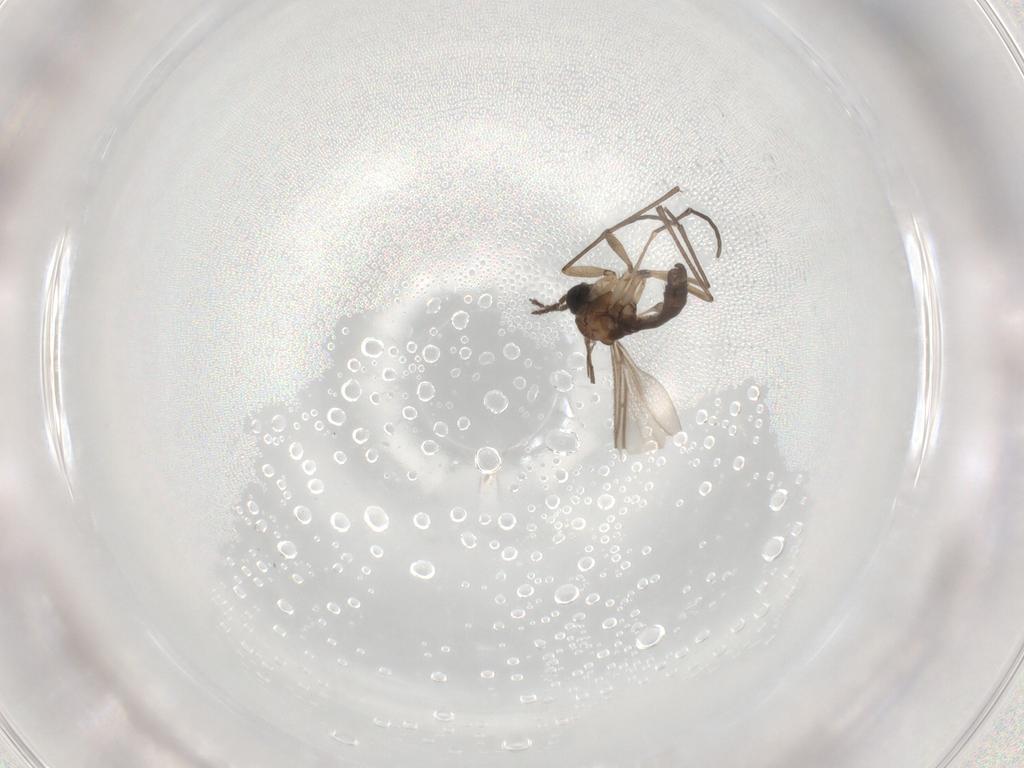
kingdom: Animalia
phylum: Arthropoda
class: Insecta
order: Diptera
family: Sciaridae
